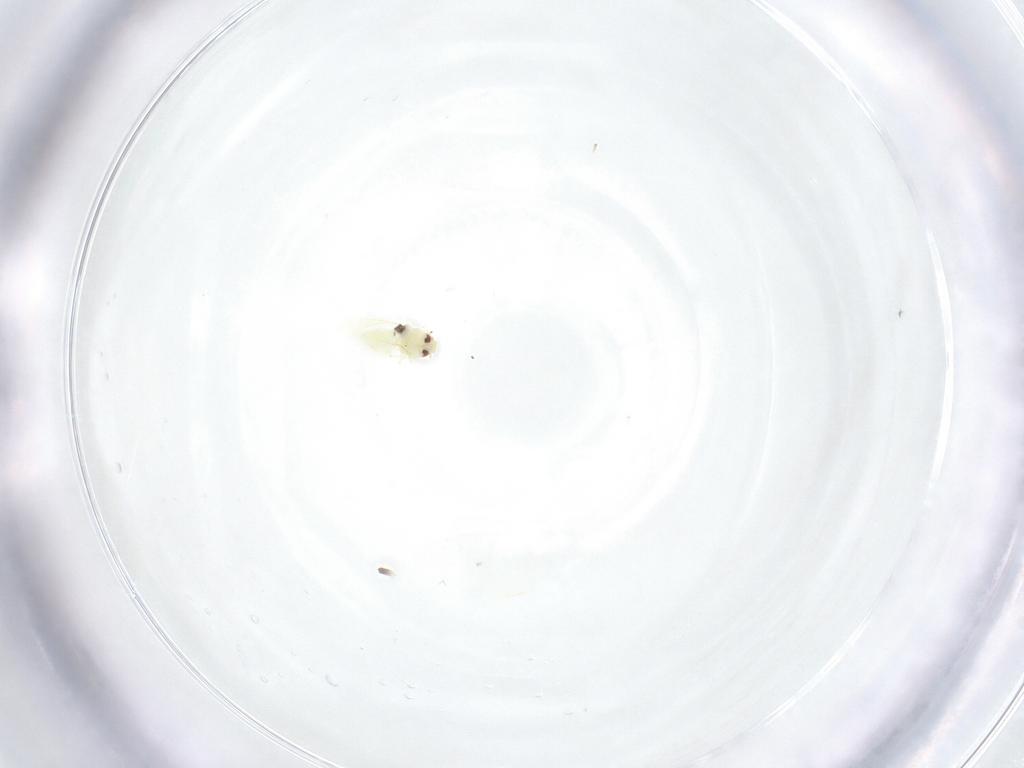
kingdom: Animalia
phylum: Arthropoda
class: Insecta
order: Hemiptera
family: Aleyrodidae
